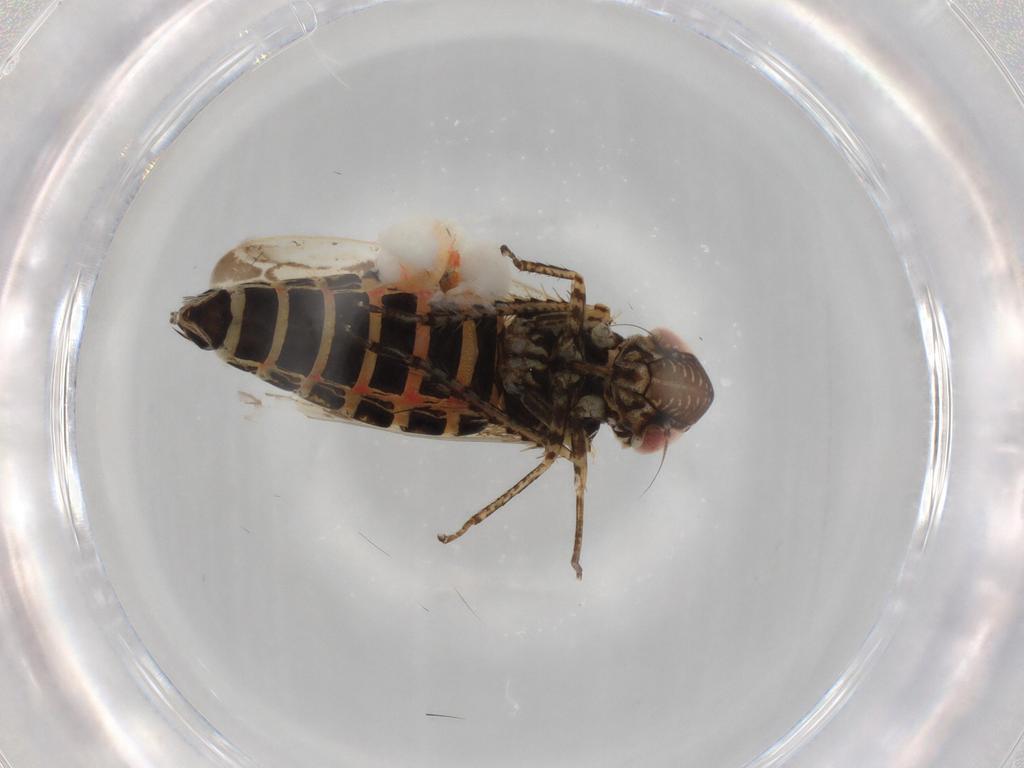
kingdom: Animalia
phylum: Arthropoda
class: Insecta
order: Hemiptera
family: Cicadellidae
